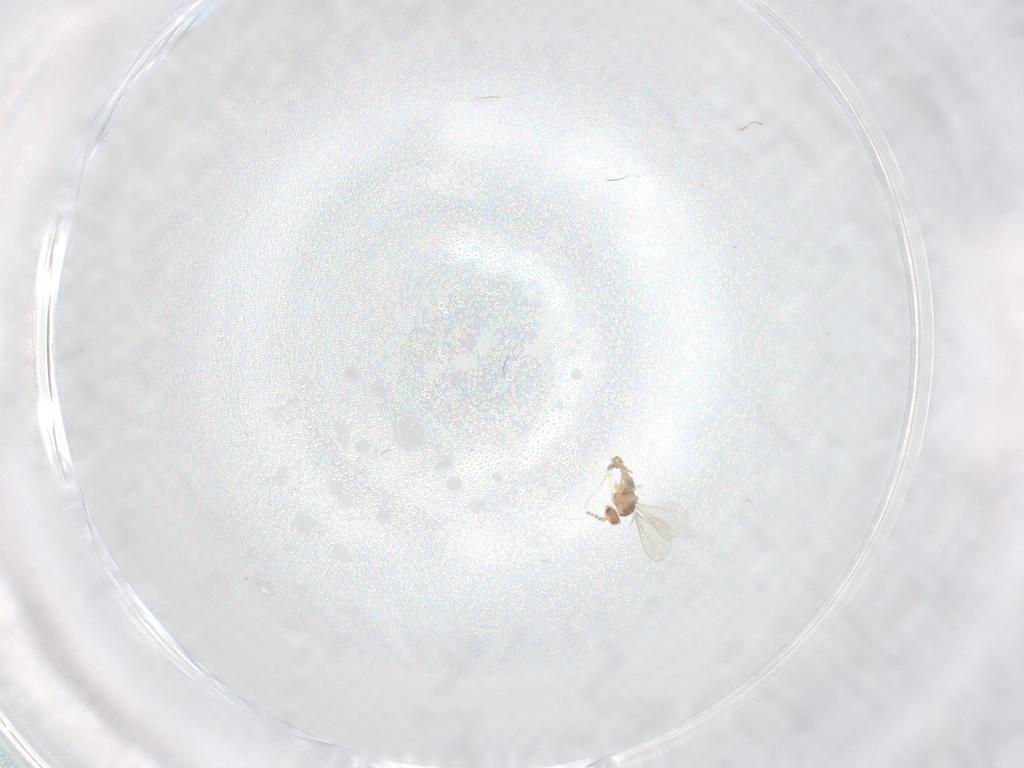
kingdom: Animalia
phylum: Arthropoda
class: Insecta
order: Diptera
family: Cecidomyiidae
